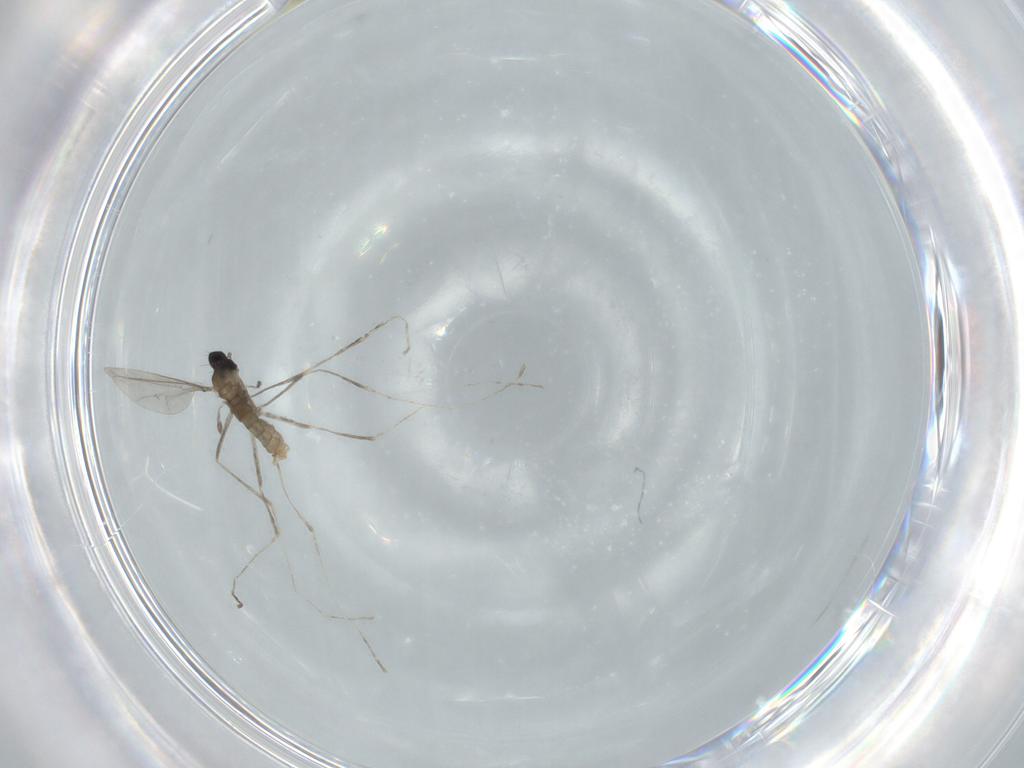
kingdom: Animalia
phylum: Arthropoda
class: Insecta
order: Diptera
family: Cecidomyiidae
